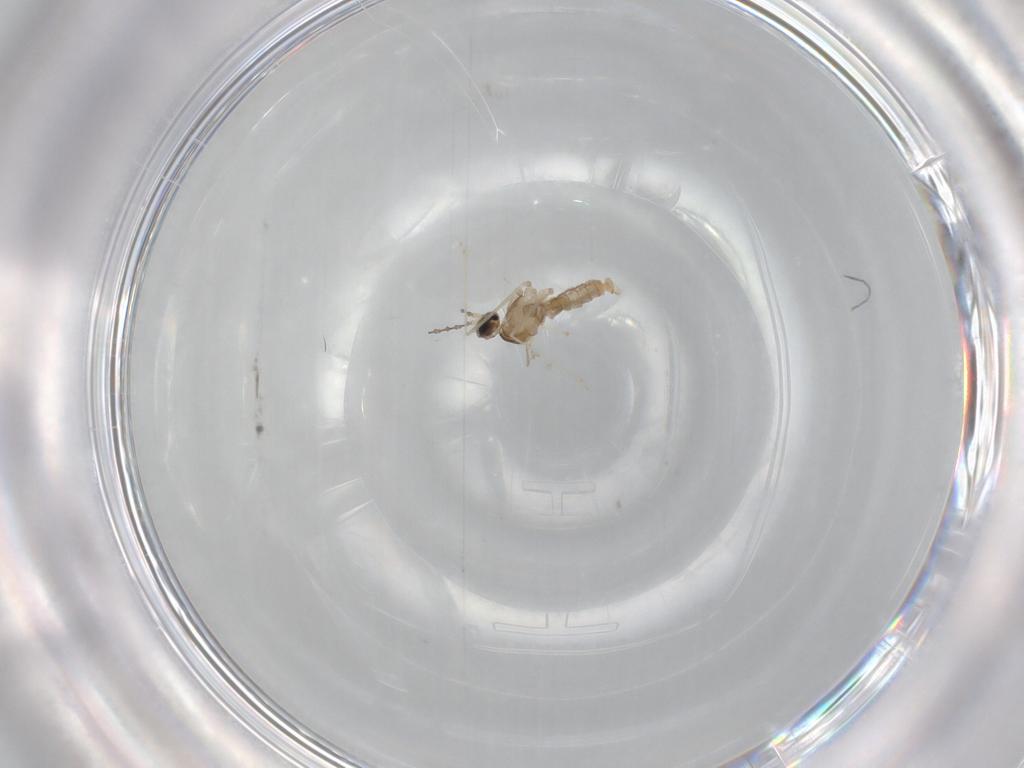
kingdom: Animalia
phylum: Arthropoda
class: Insecta
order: Diptera
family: Cecidomyiidae
